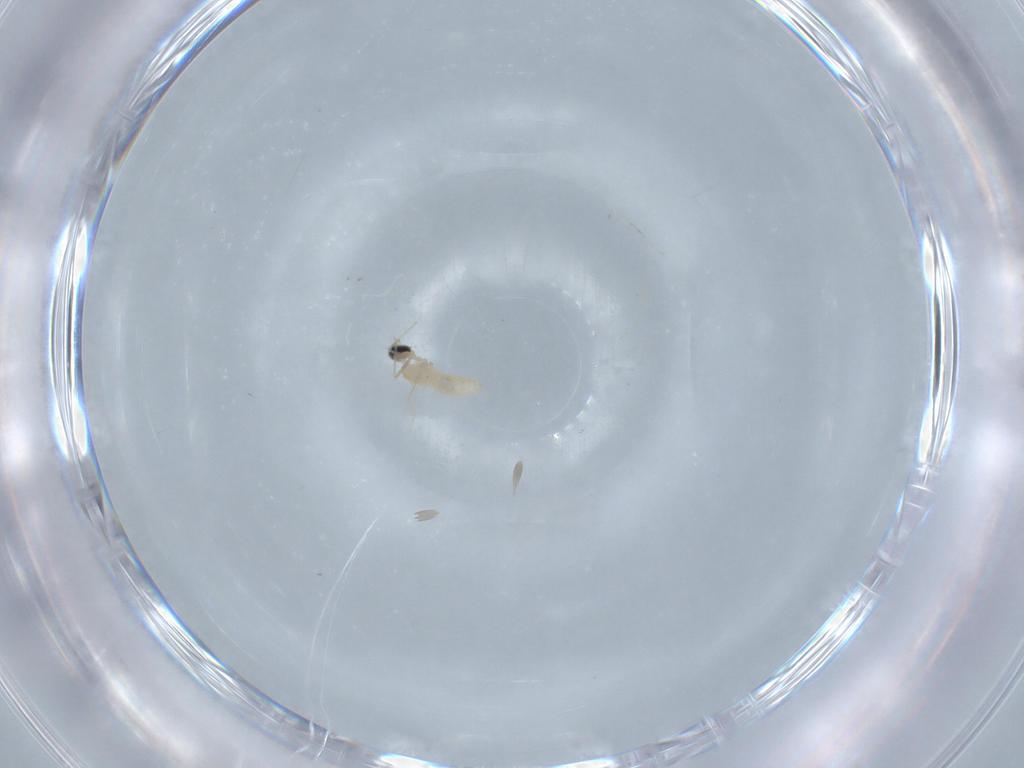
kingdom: Animalia
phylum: Arthropoda
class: Insecta
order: Diptera
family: Cecidomyiidae
